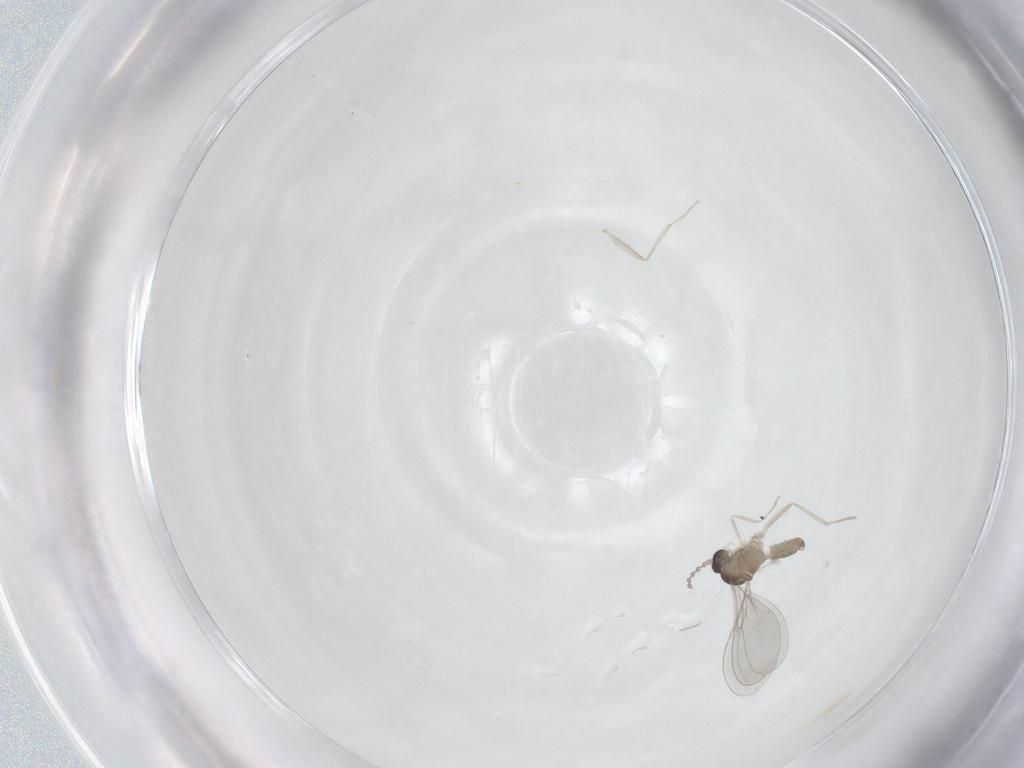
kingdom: Animalia
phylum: Arthropoda
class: Insecta
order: Diptera
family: Cecidomyiidae
